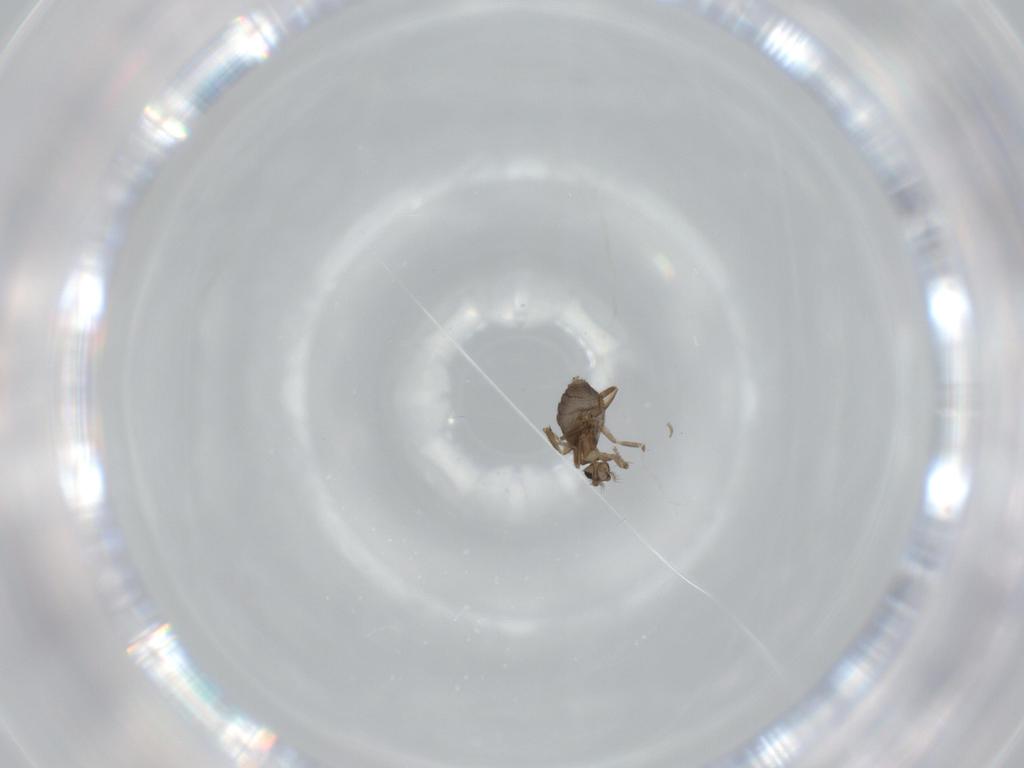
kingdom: Animalia
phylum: Arthropoda
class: Insecta
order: Diptera
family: Phoridae
